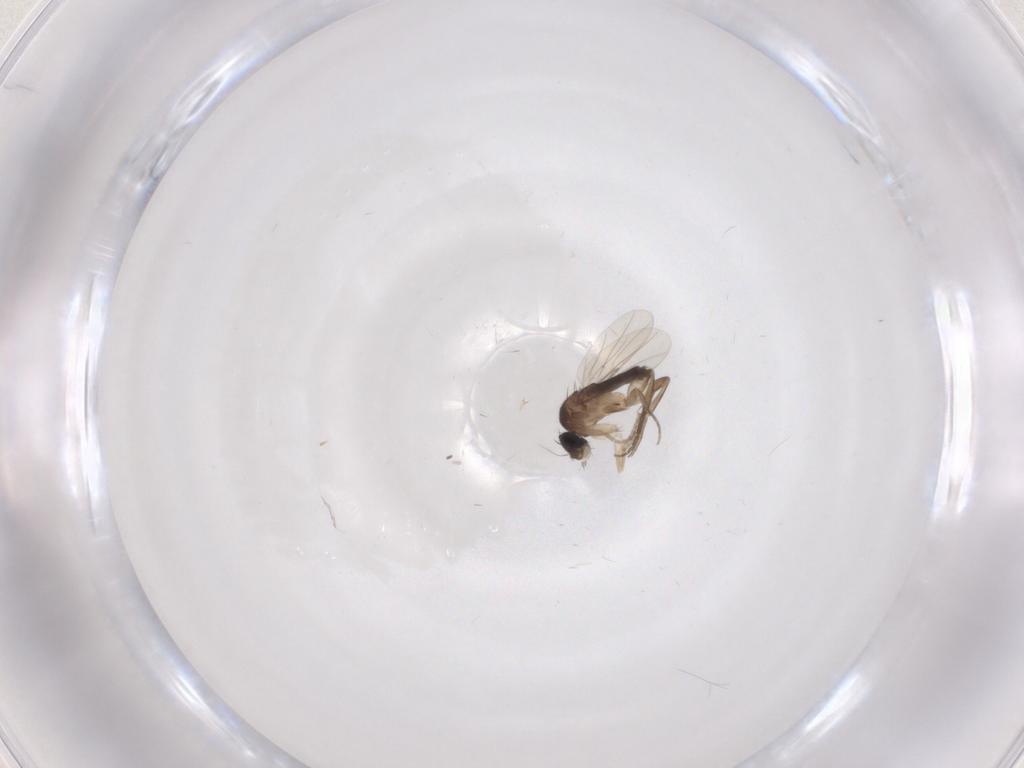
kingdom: Animalia
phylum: Arthropoda
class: Insecta
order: Diptera
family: Phoridae
